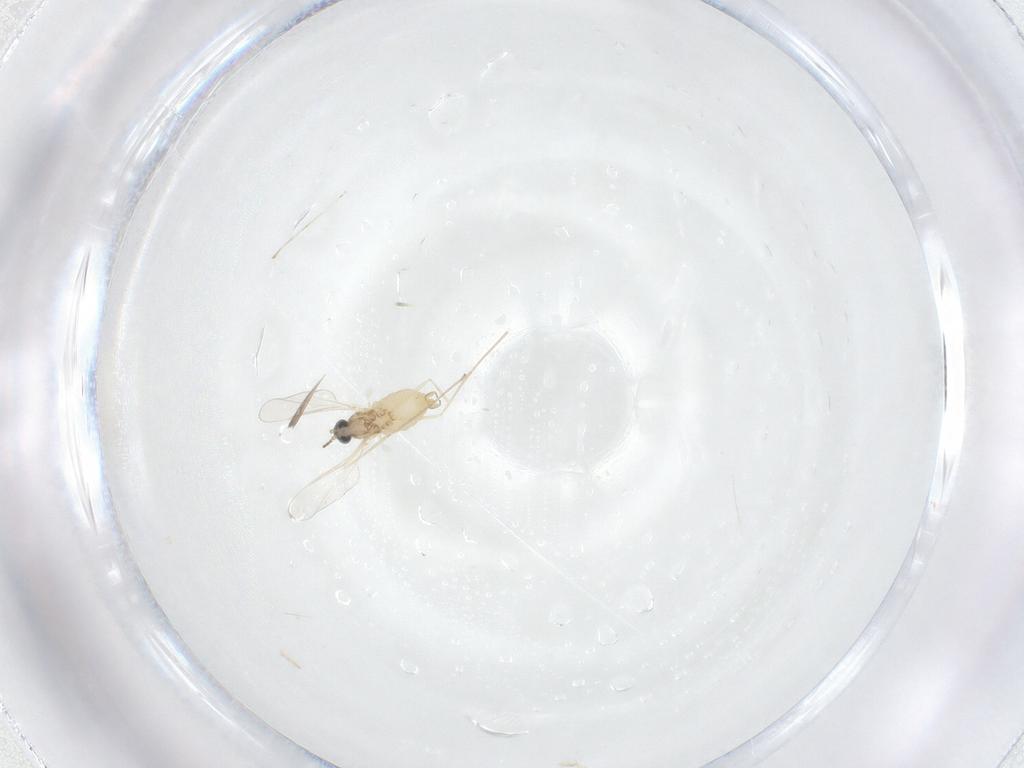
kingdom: Animalia
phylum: Arthropoda
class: Insecta
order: Diptera
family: Cecidomyiidae
